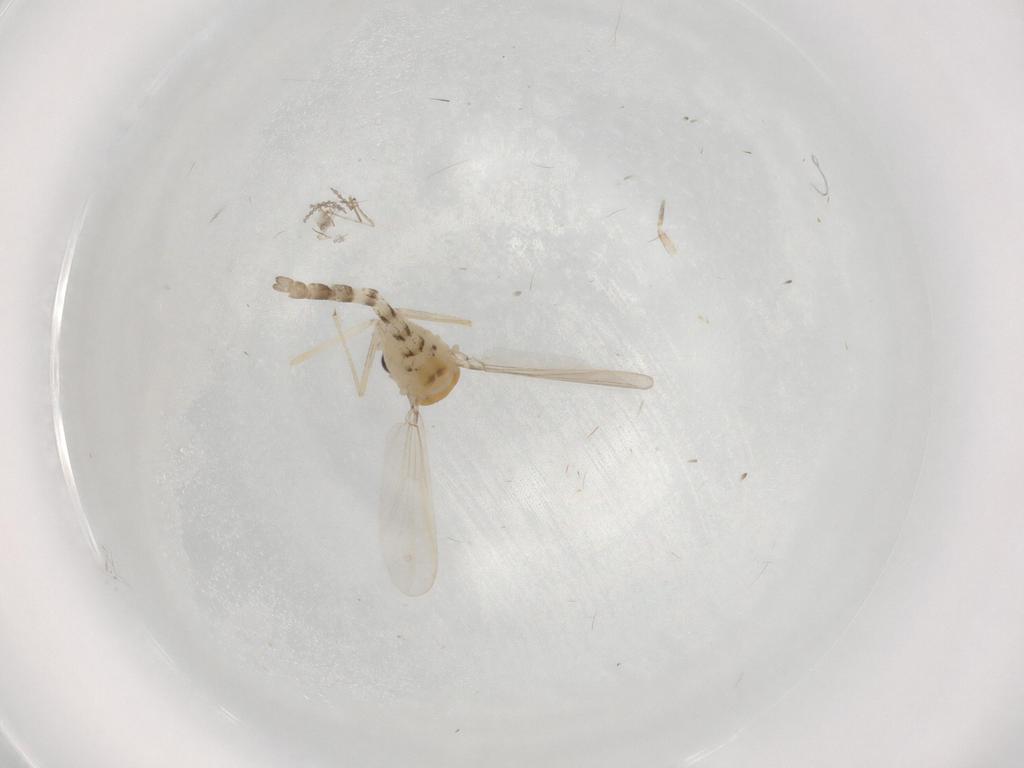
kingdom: Animalia
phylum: Arthropoda
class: Insecta
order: Diptera
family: Chironomidae
